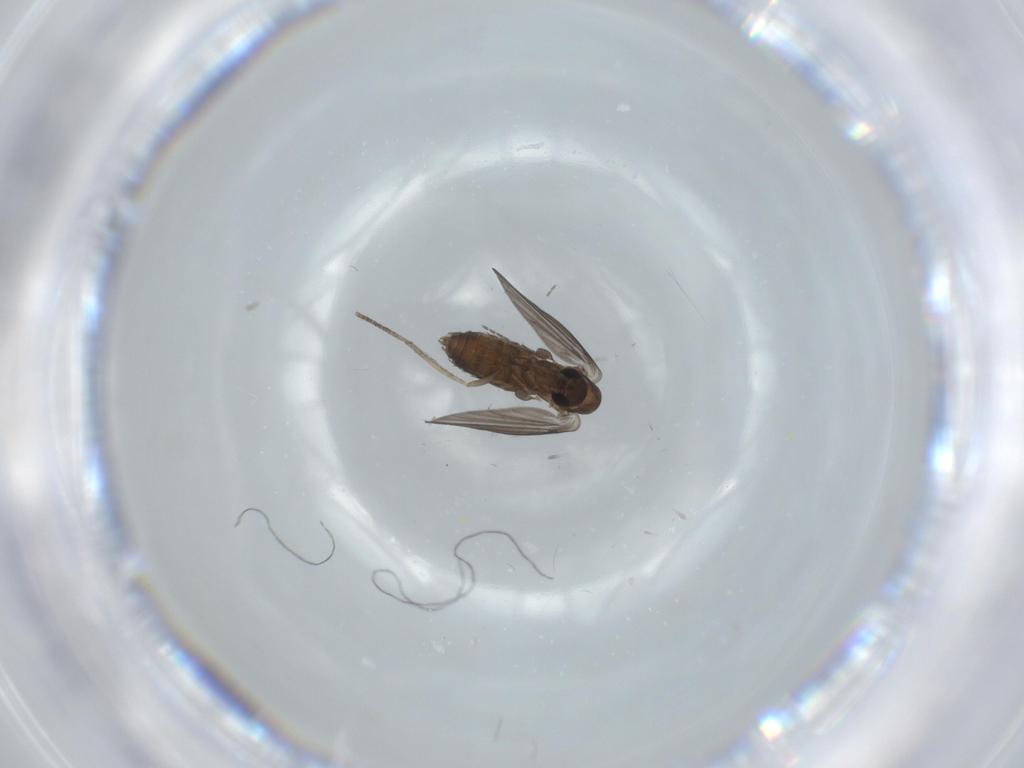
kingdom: Animalia
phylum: Arthropoda
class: Insecta
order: Diptera
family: Psychodidae
